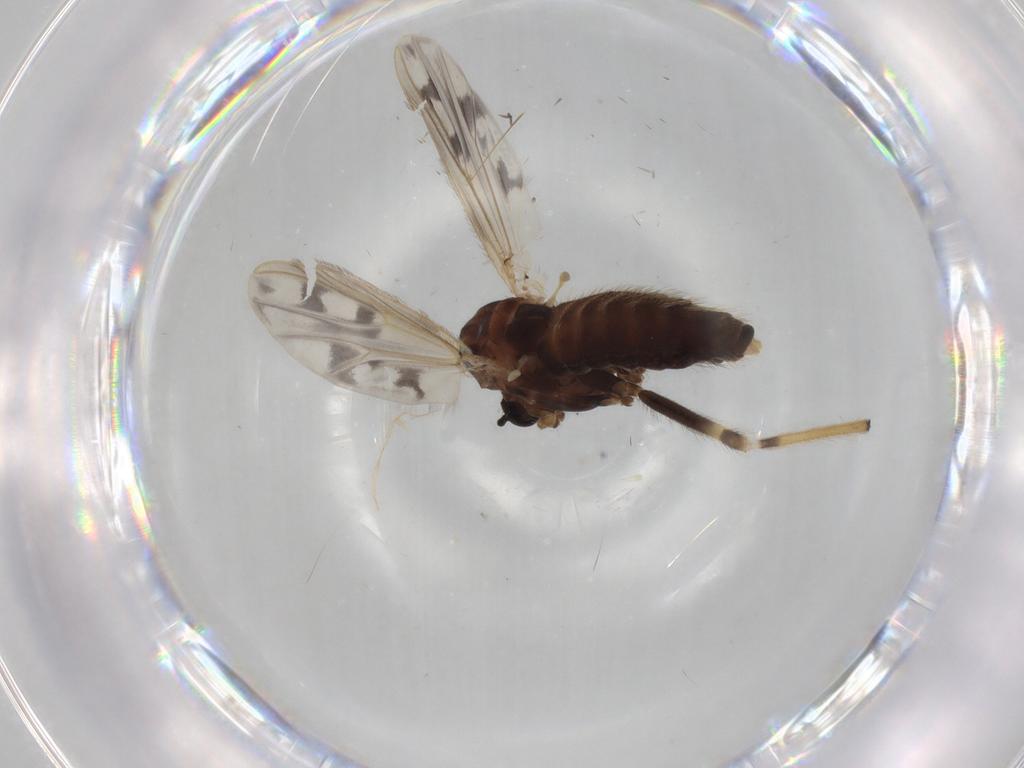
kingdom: Animalia
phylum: Arthropoda
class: Insecta
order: Diptera
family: Chironomidae
